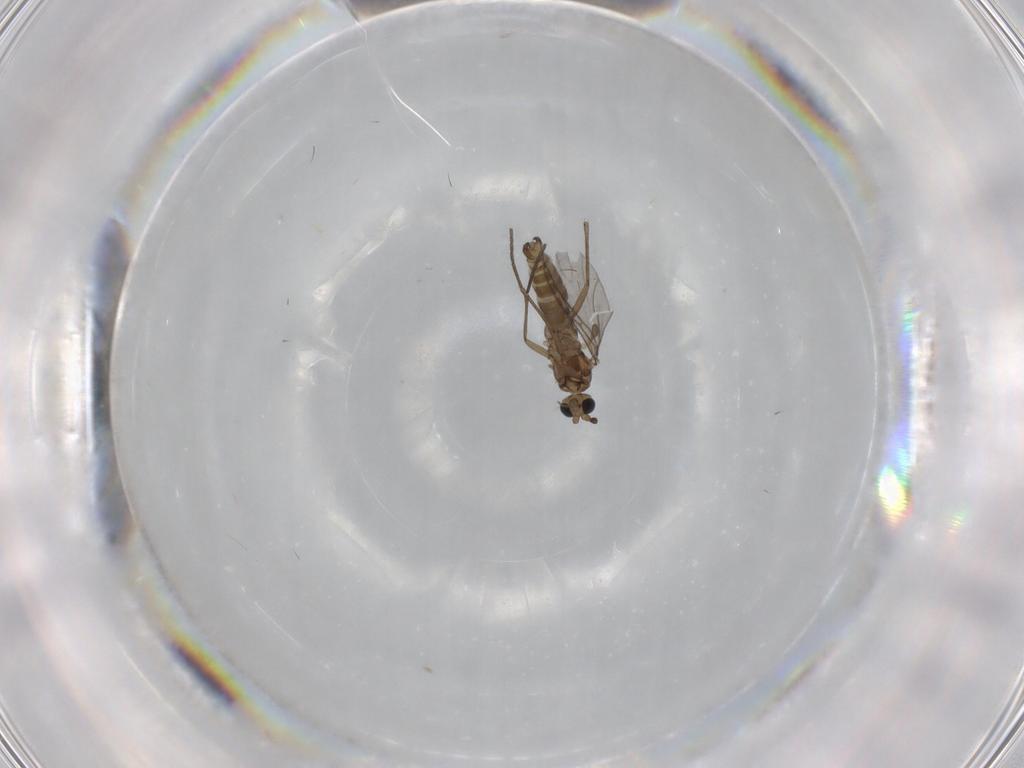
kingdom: Animalia
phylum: Arthropoda
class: Insecta
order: Diptera
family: Tabanidae
